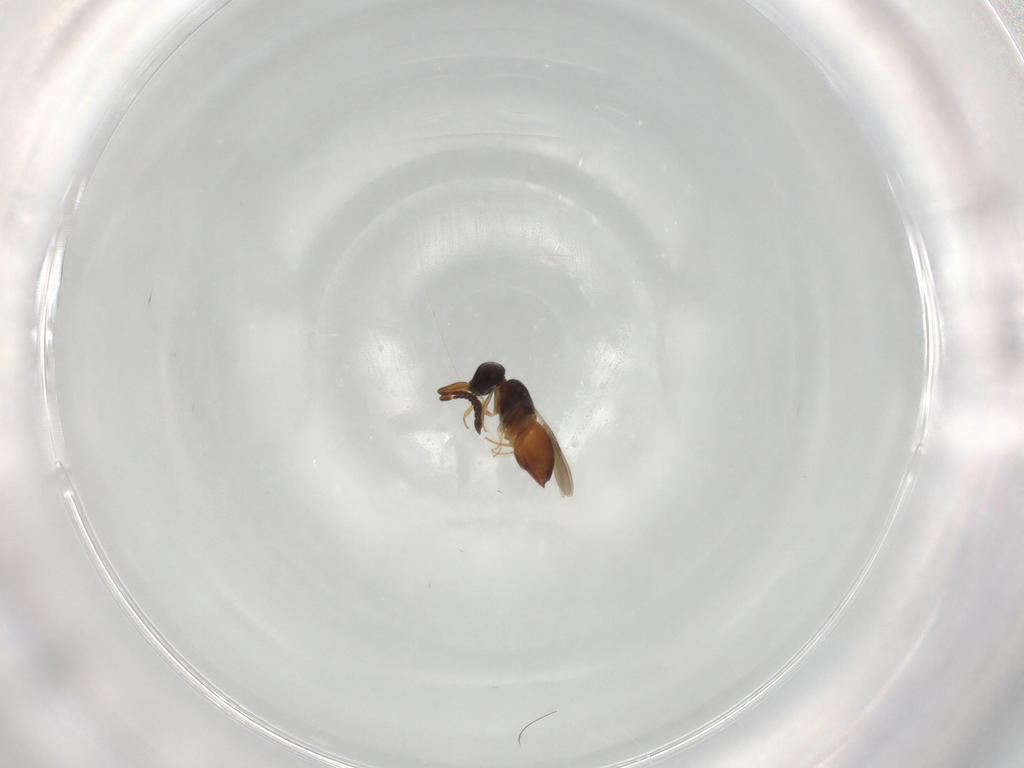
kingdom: Animalia
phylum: Arthropoda
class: Insecta
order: Hymenoptera
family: Ceraphronidae
